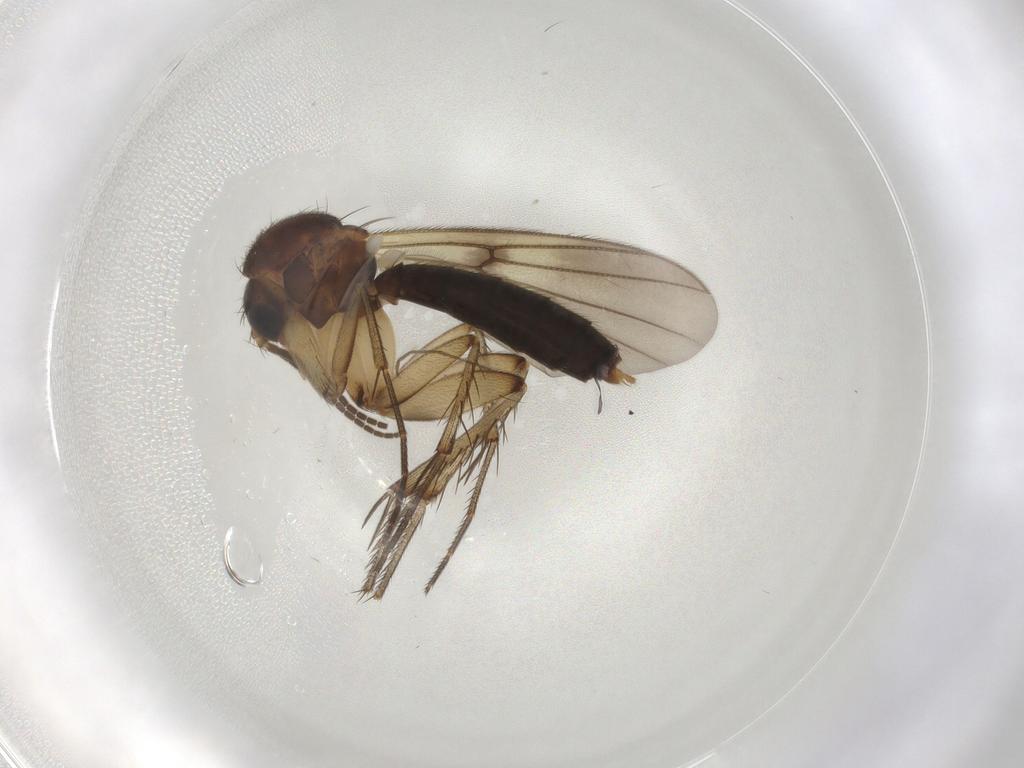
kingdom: Animalia
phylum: Arthropoda
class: Insecta
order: Diptera
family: Mycetophilidae
